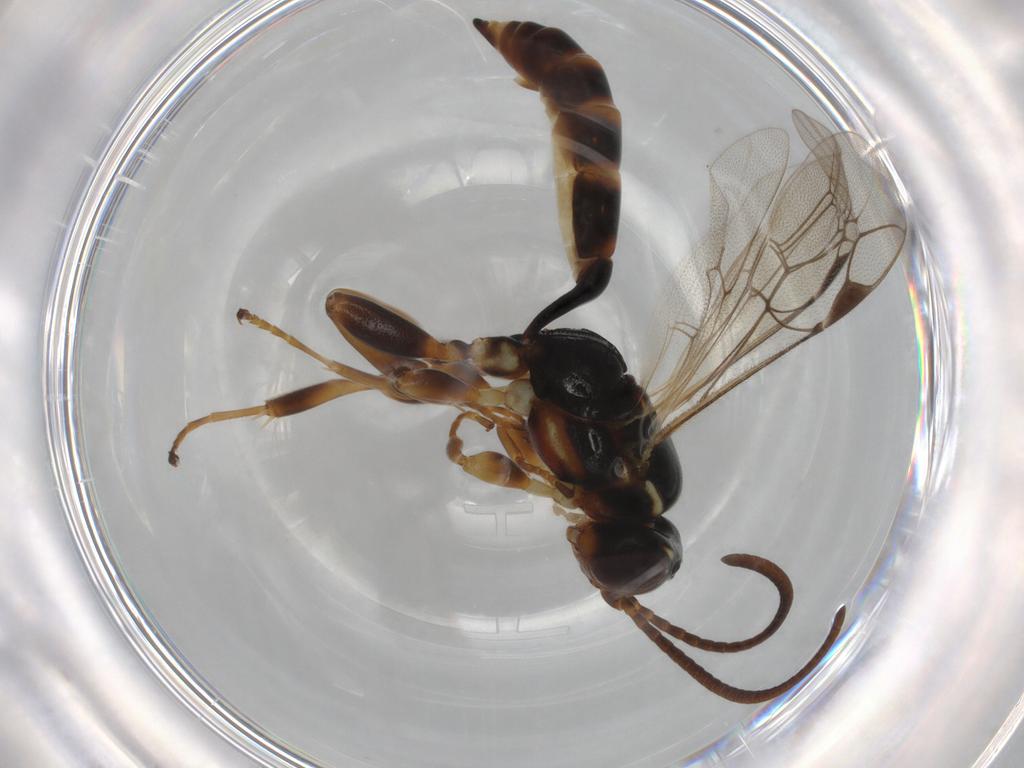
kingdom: Animalia
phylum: Arthropoda
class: Insecta
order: Hymenoptera
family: Ichneumonidae
